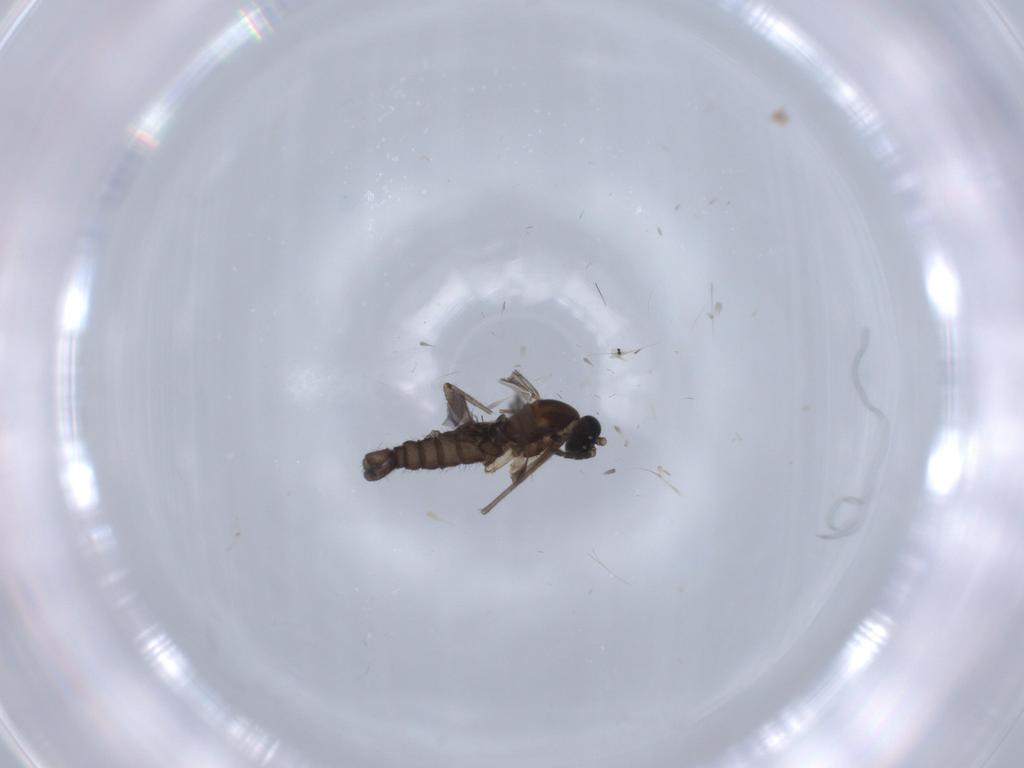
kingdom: Animalia
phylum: Arthropoda
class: Insecta
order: Diptera
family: Sciaridae
